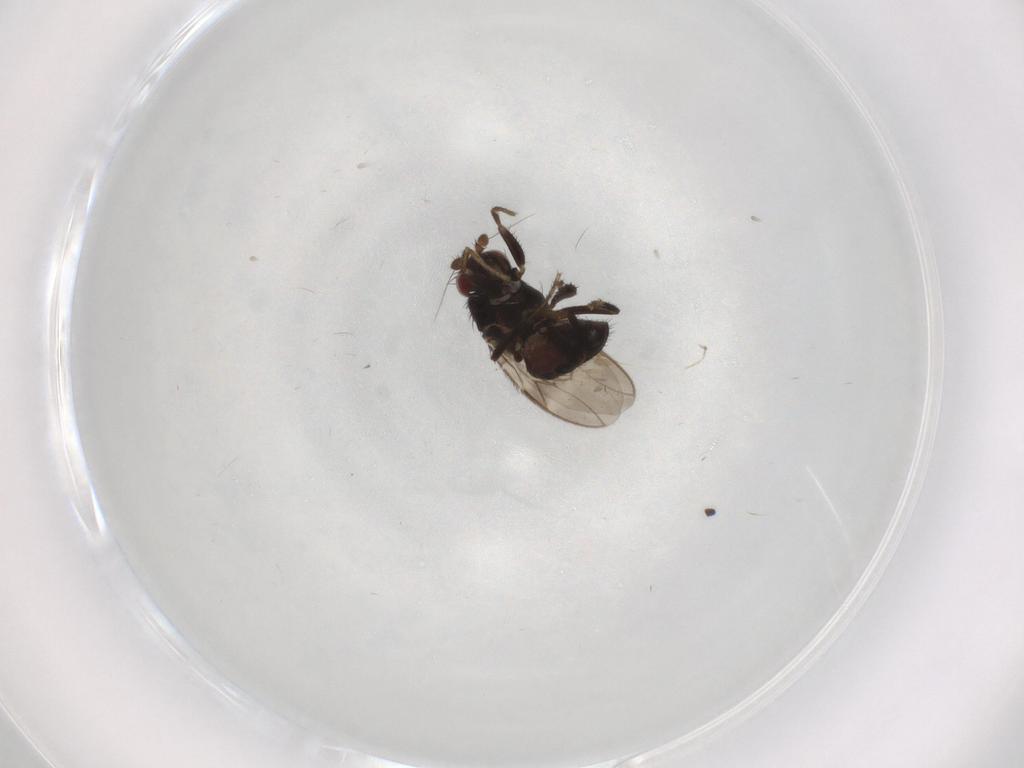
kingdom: Animalia
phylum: Arthropoda
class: Insecta
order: Diptera
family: Sphaeroceridae
